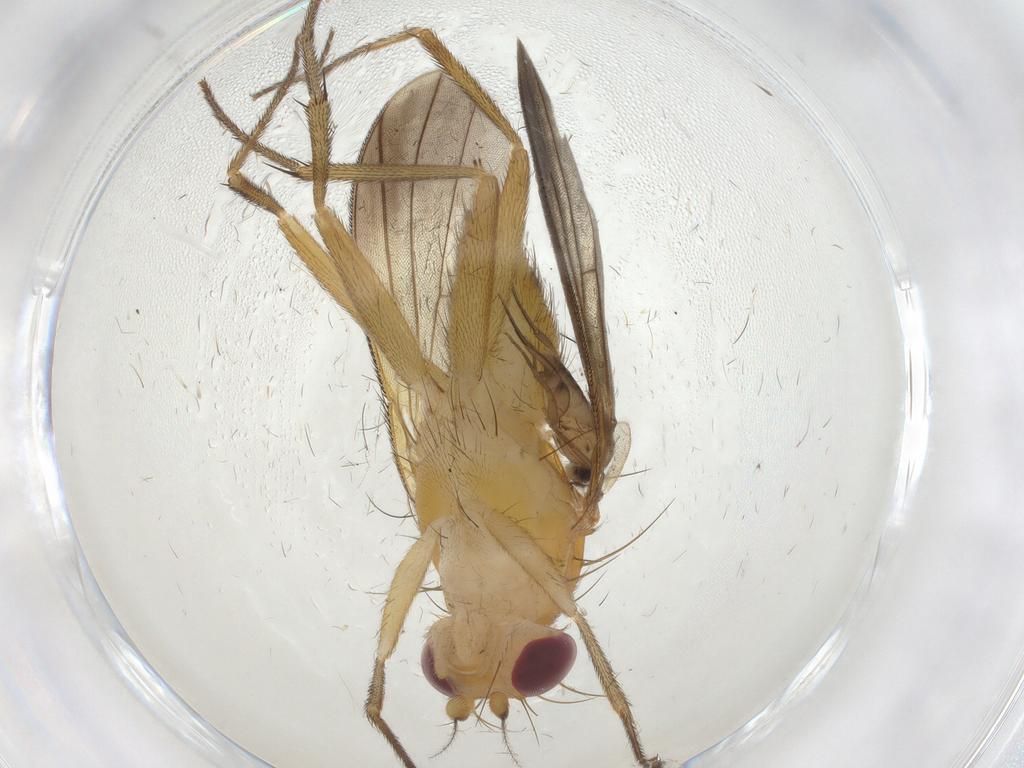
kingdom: Animalia
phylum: Arthropoda
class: Insecta
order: Diptera
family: Clusiidae
